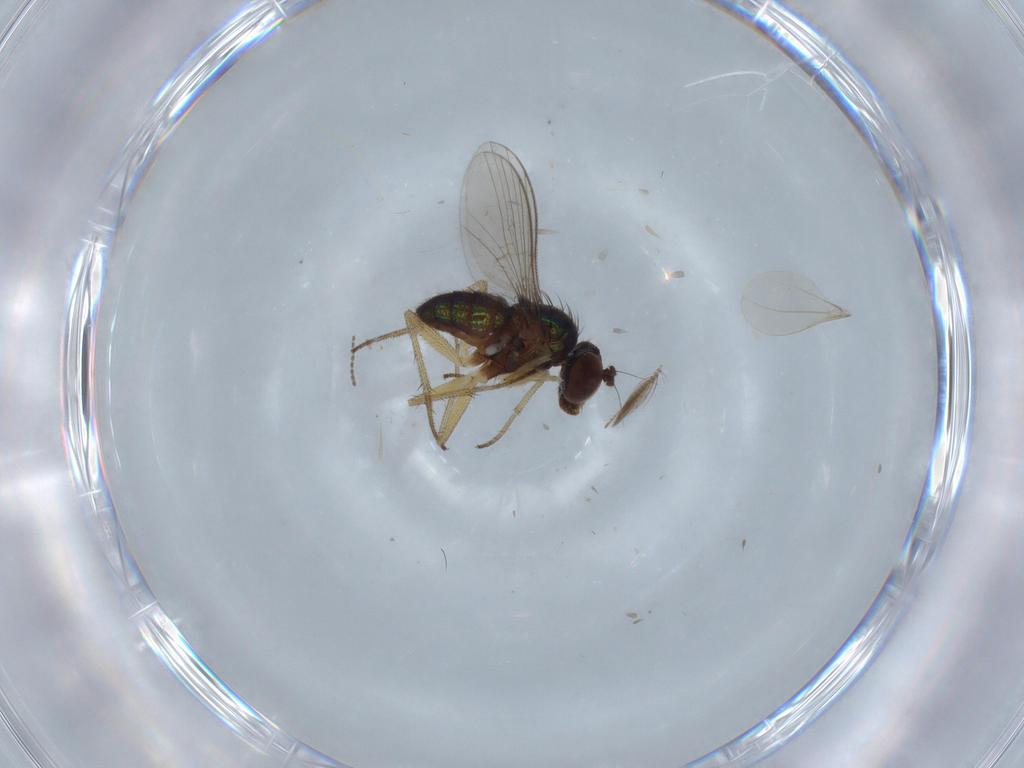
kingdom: Animalia
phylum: Arthropoda
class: Insecta
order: Diptera
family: Ceratopogonidae
